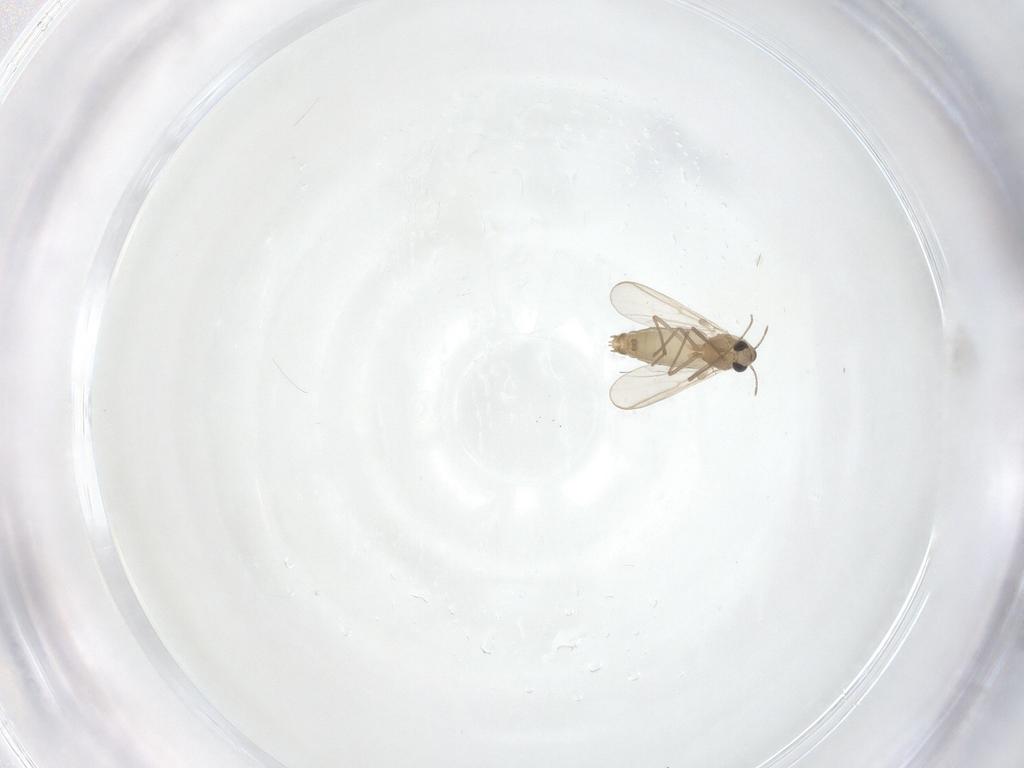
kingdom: Animalia
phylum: Arthropoda
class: Insecta
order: Diptera
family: Chironomidae
